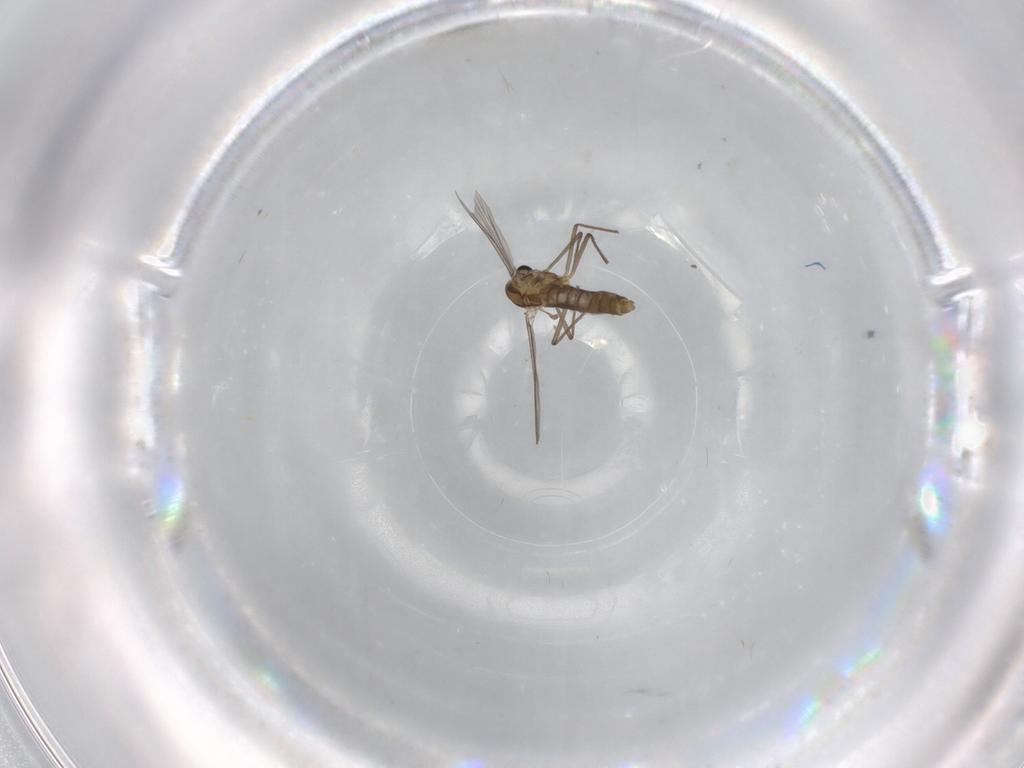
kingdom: Animalia
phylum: Arthropoda
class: Insecta
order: Diptera
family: Chironomidae
